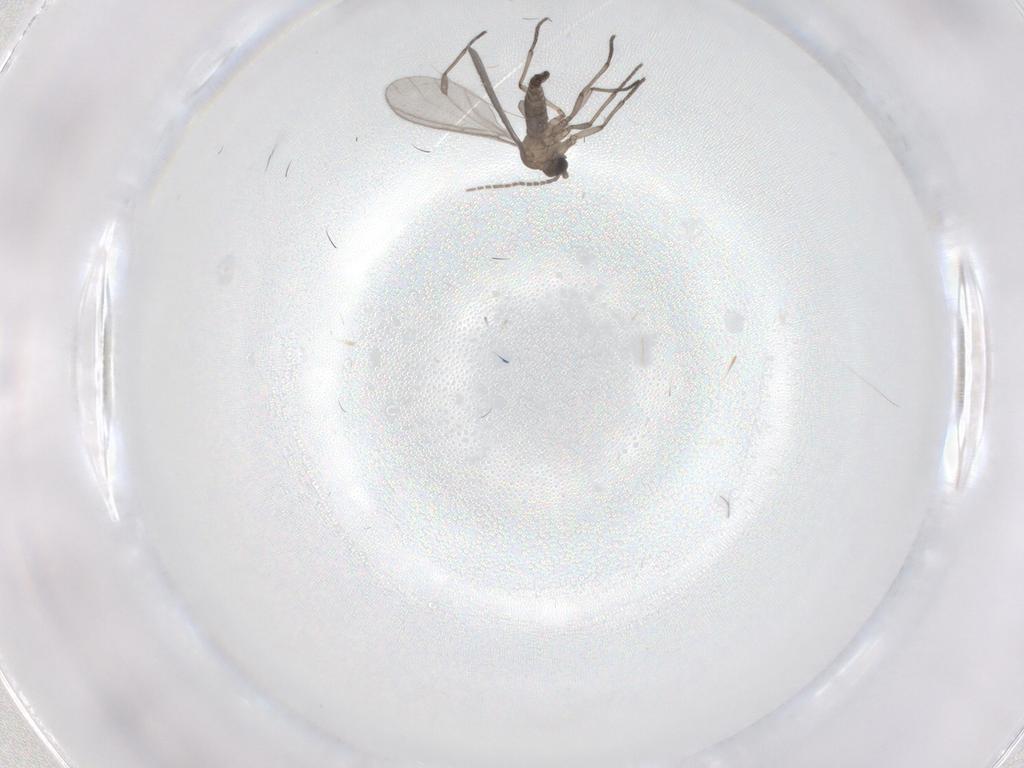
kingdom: Animalia
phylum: Arthropoda
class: Insecta
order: Diptera
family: Sciaridae
